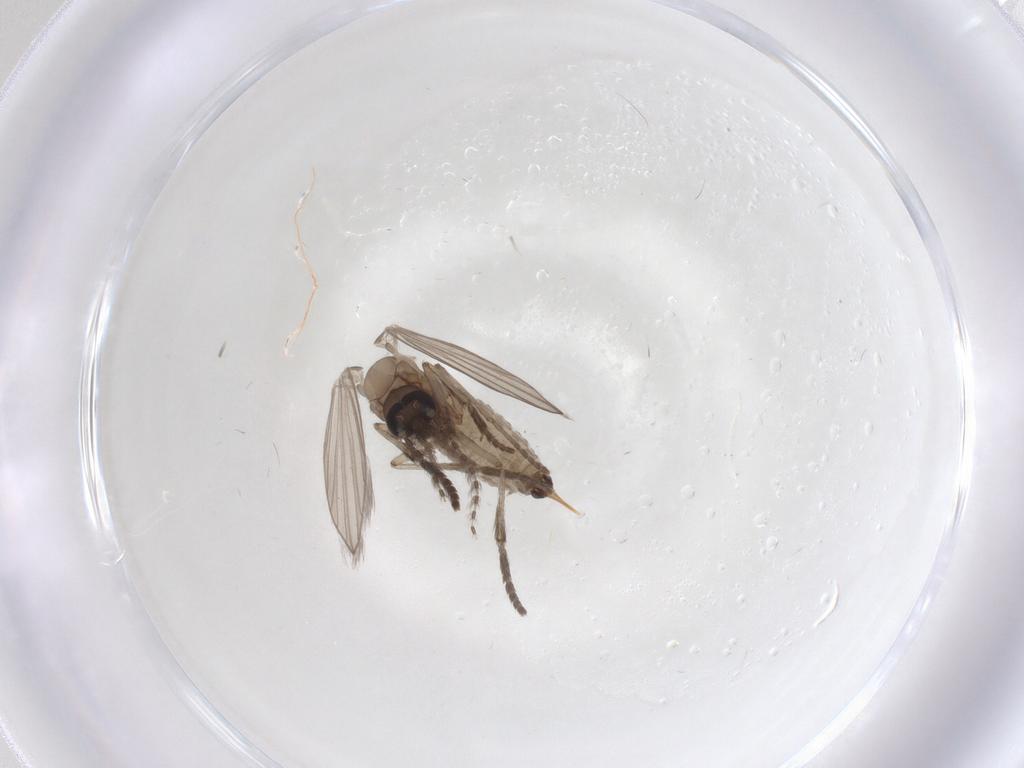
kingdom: Animalia
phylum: Arthropoda
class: Insecta
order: Diptera
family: Psychodidae
